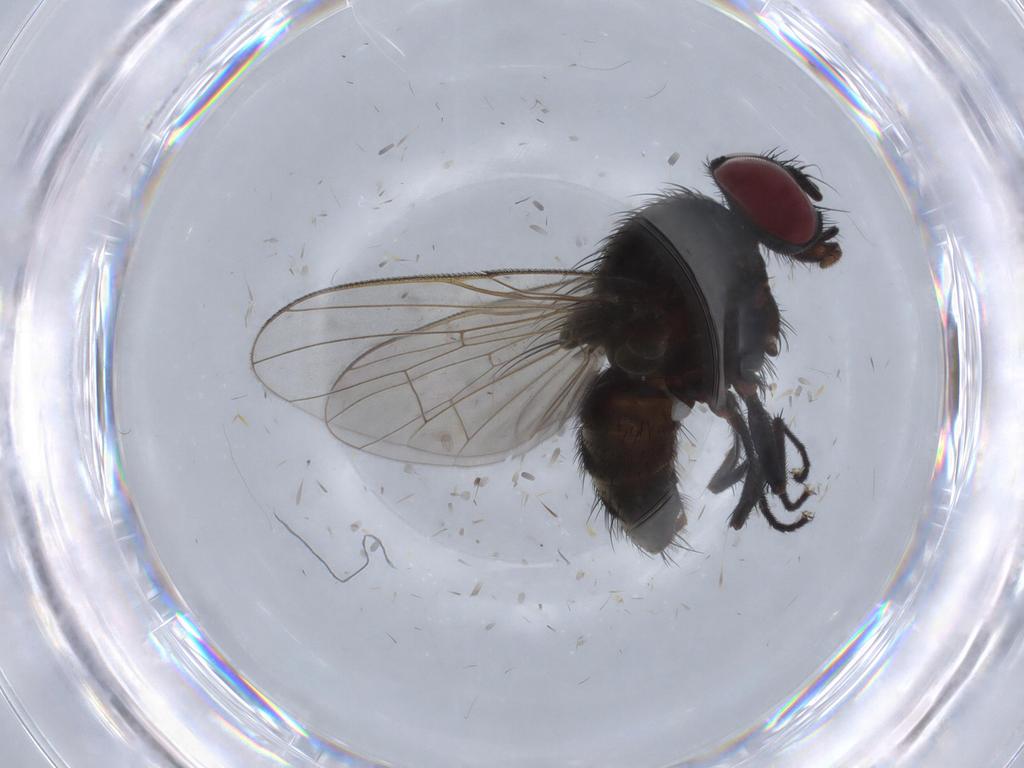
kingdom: Animalia
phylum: Arthropoda
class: Insecta
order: Diptera
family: Muscidae
